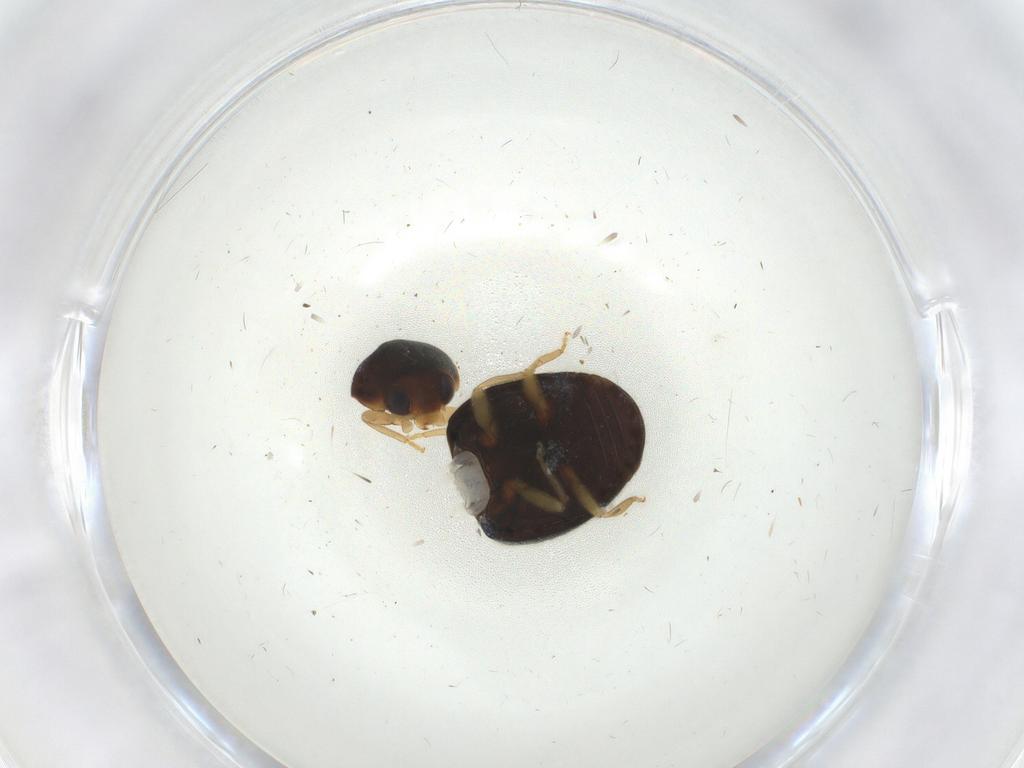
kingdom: Animalia
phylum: Arthropoda
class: Insecta
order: Coleoptera
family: Coccinellidae
